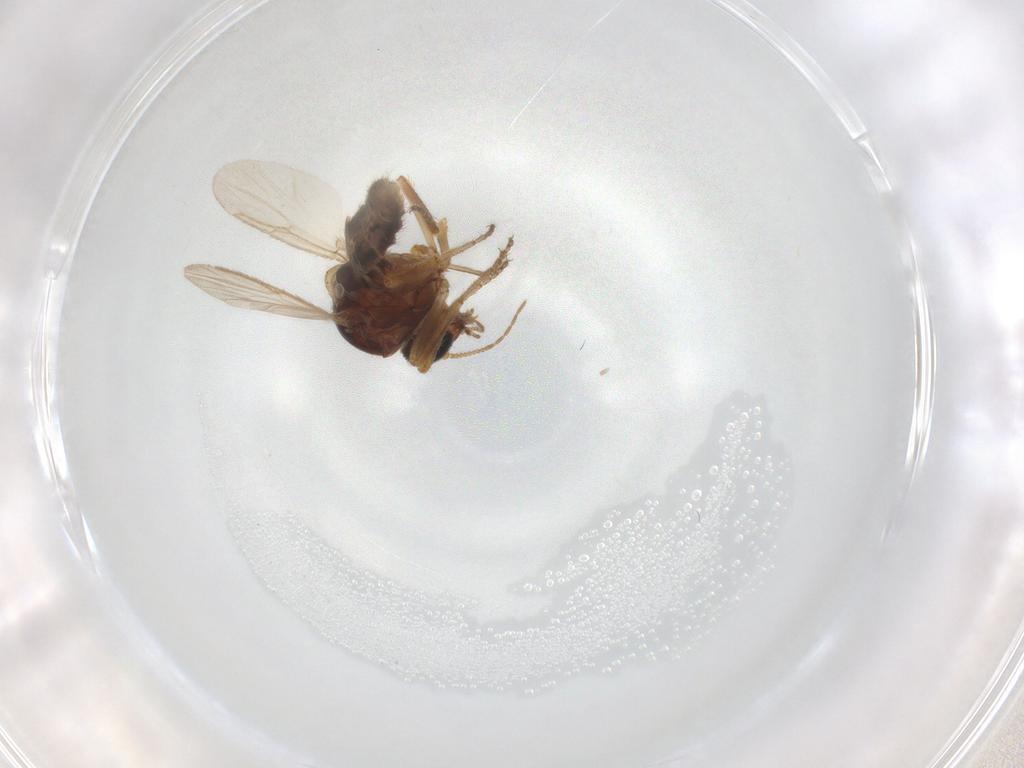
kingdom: Animalia
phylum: Arthropoda
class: Insecta
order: Diptera
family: Ceratopogonidae
